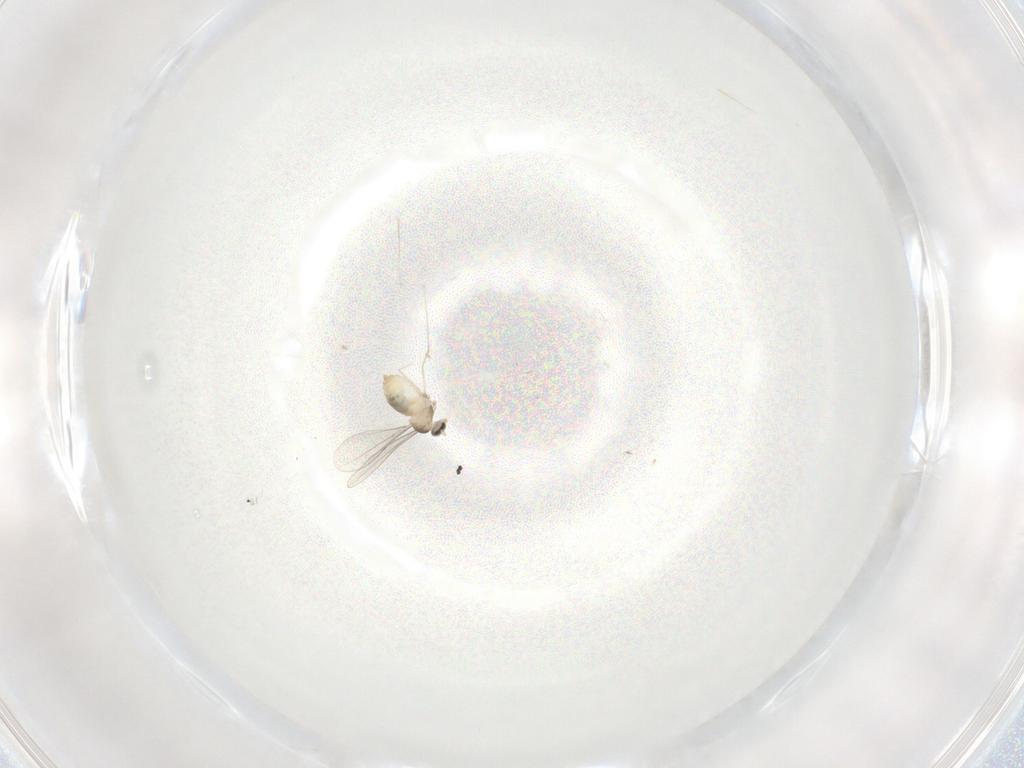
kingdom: Animalia
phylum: Arthropoda
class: Insecta
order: Diptera
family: Cecidomyiidae
